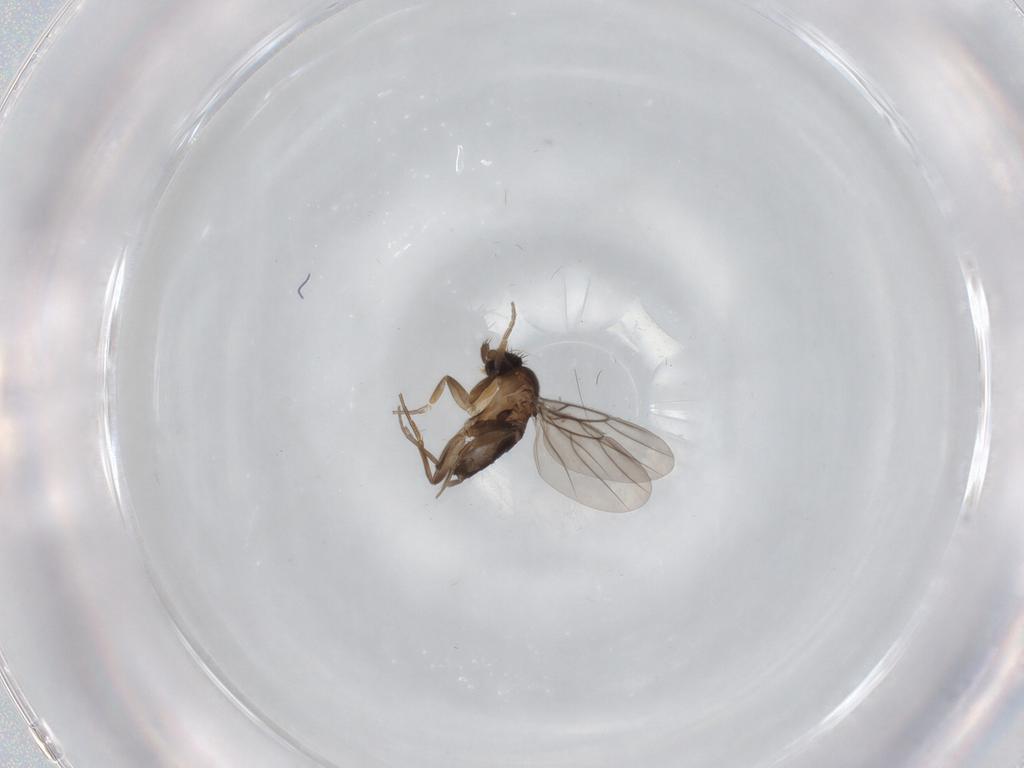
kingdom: Animalia
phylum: Arthropoda
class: Insecta
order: Diptera
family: Phoridae
